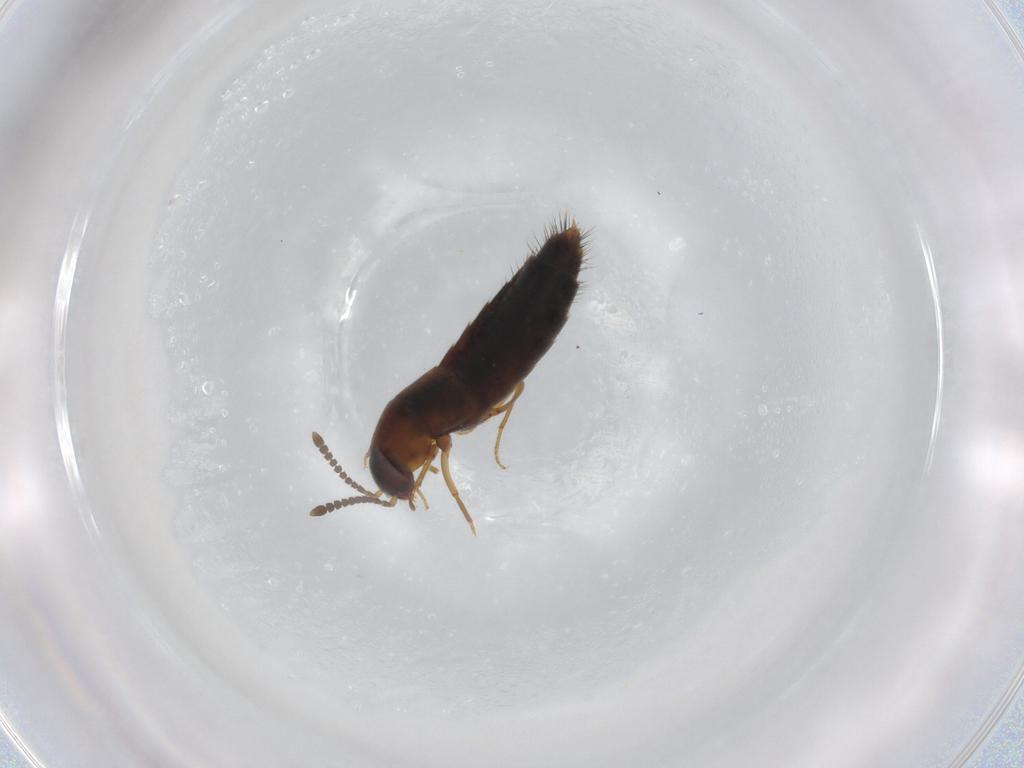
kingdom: Animalia
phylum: Arthropoda
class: Insecta
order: Coleoptera
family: Staphylinidae
